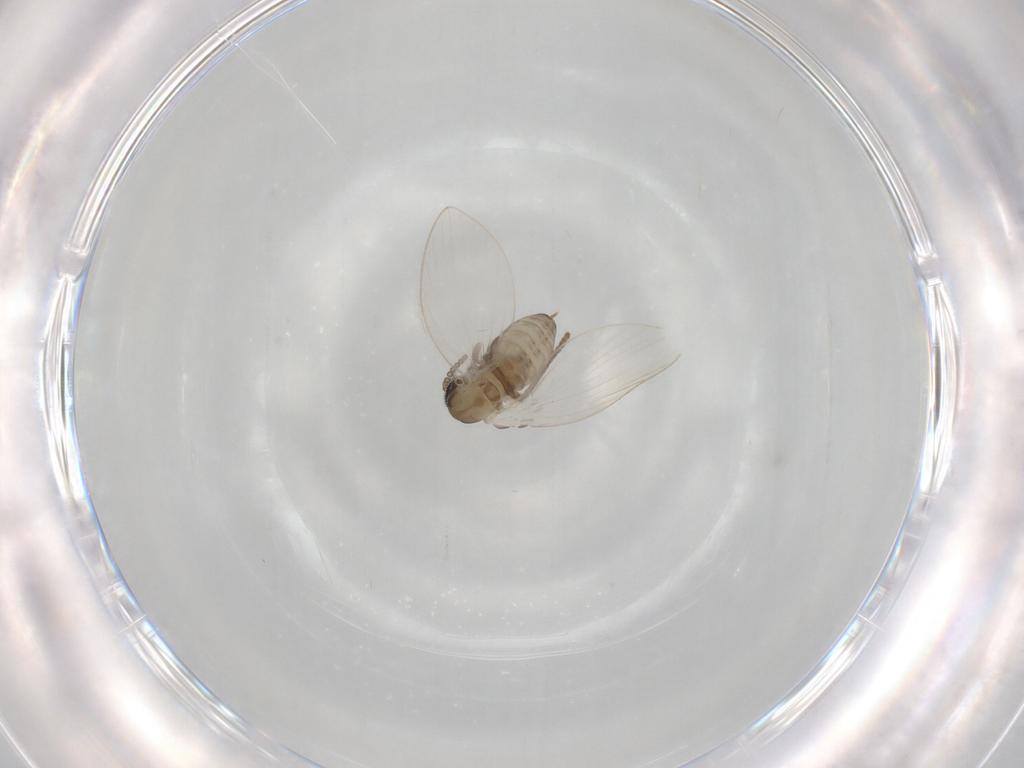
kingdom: Animalia
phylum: Arthropoda
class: Insecta
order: Diptera
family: Psychodidae
